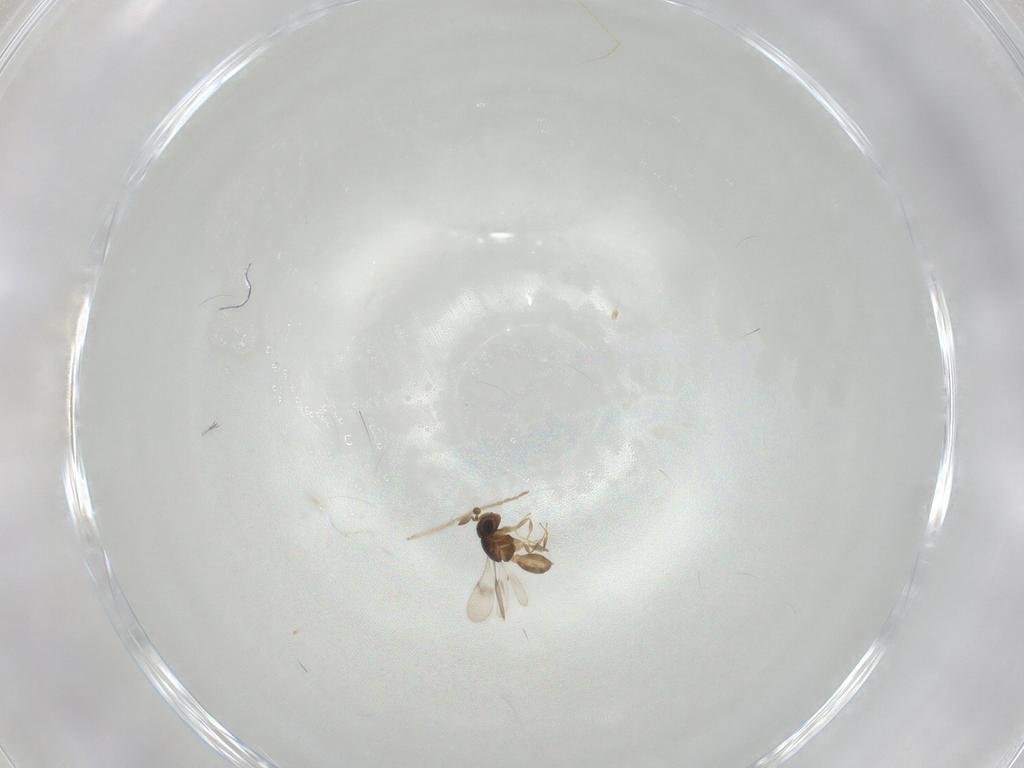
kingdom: Animalia
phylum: Arthropoda
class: Insecta
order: Hymenoptera
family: Scelionidae
